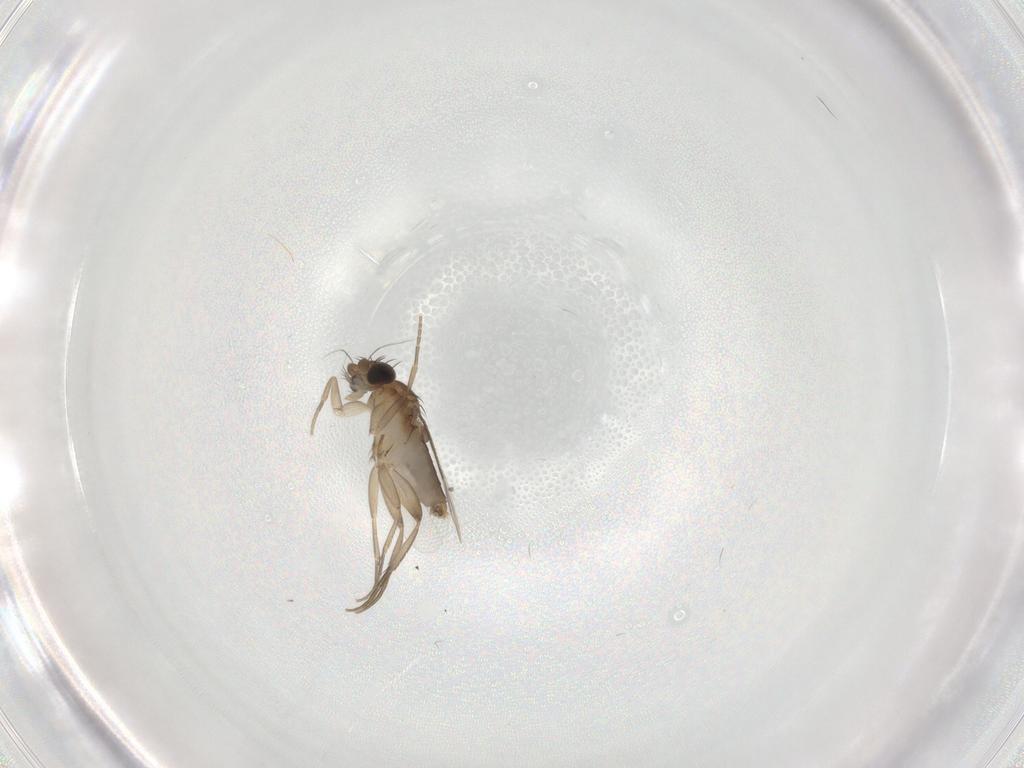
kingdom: Animalia
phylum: Arthropoda
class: Insecta
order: Diptera
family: Phoridae
